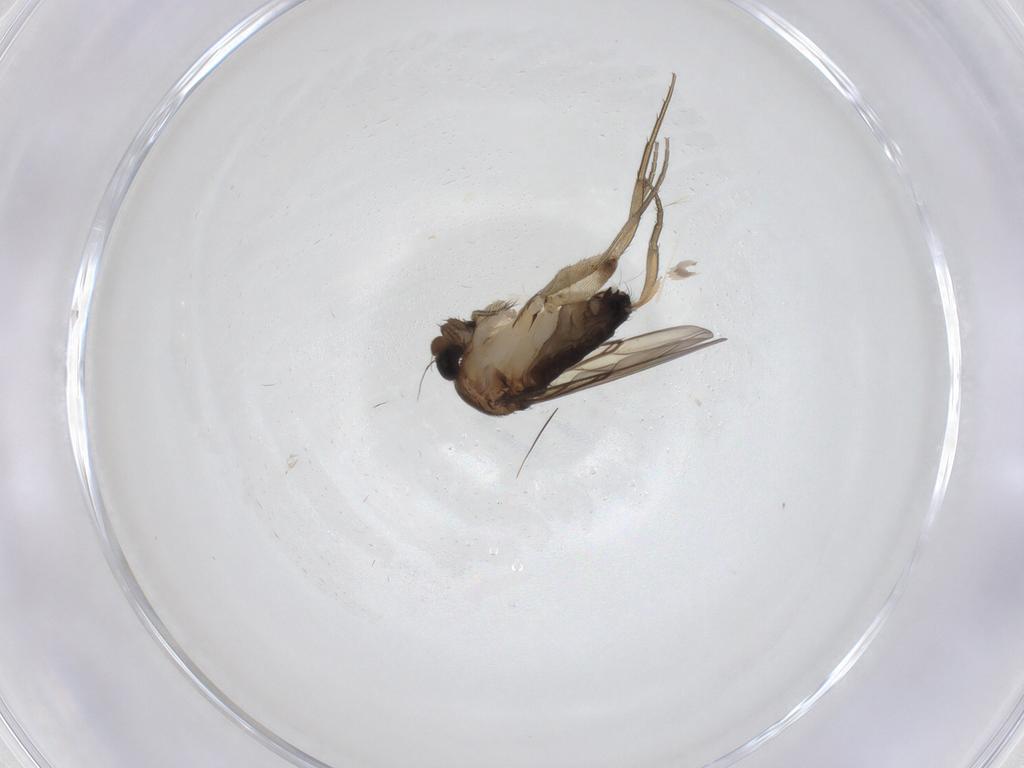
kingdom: Animalia
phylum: Arthropoda
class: Insecta
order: Diptera
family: Phoridae
